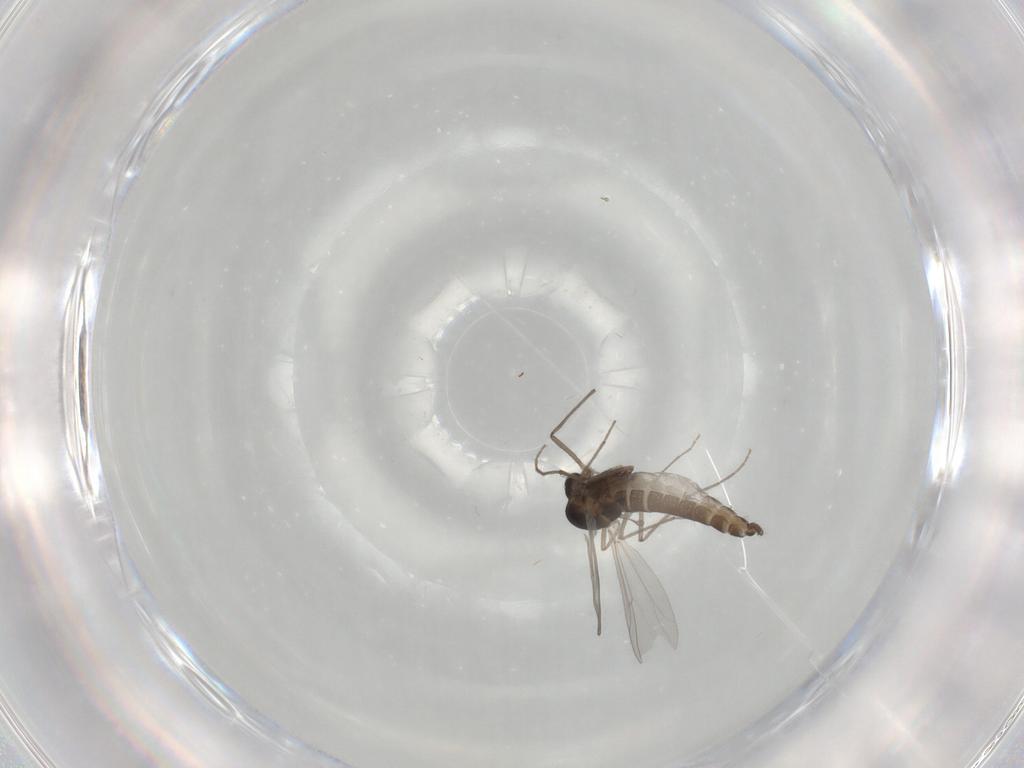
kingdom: Animalia
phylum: Arthropoda
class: Insecta
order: Diptera
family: Chironomidae
